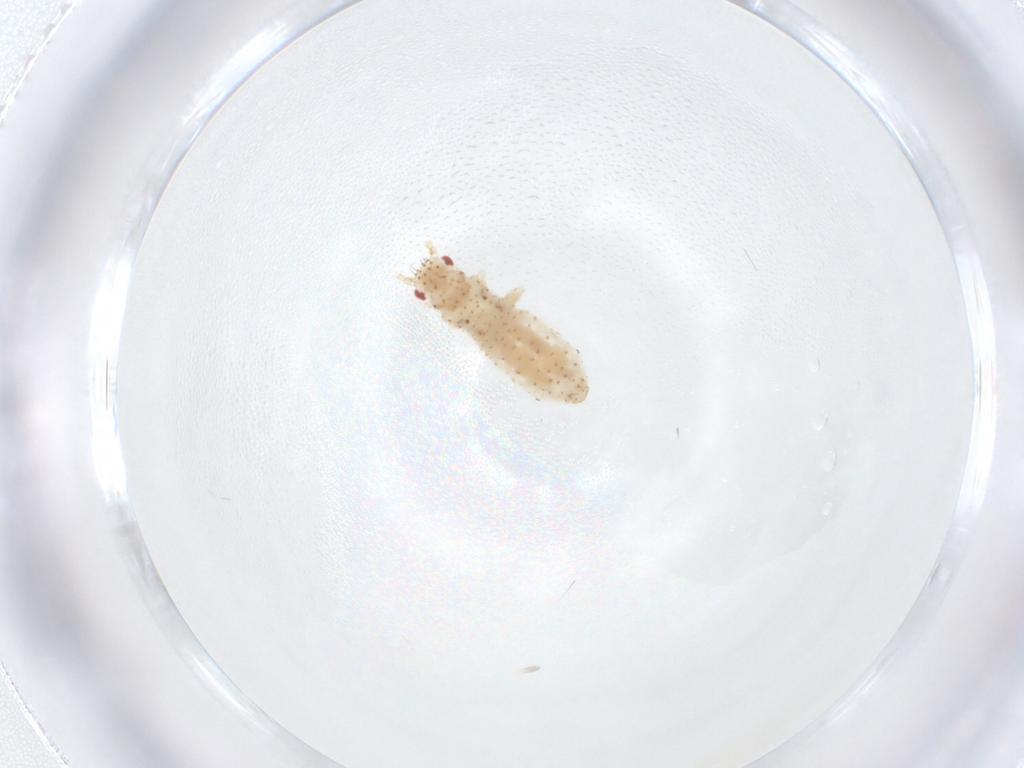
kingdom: Animalia
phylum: Arthropoda
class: Insecta
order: Hemiptera
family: Aphididae
